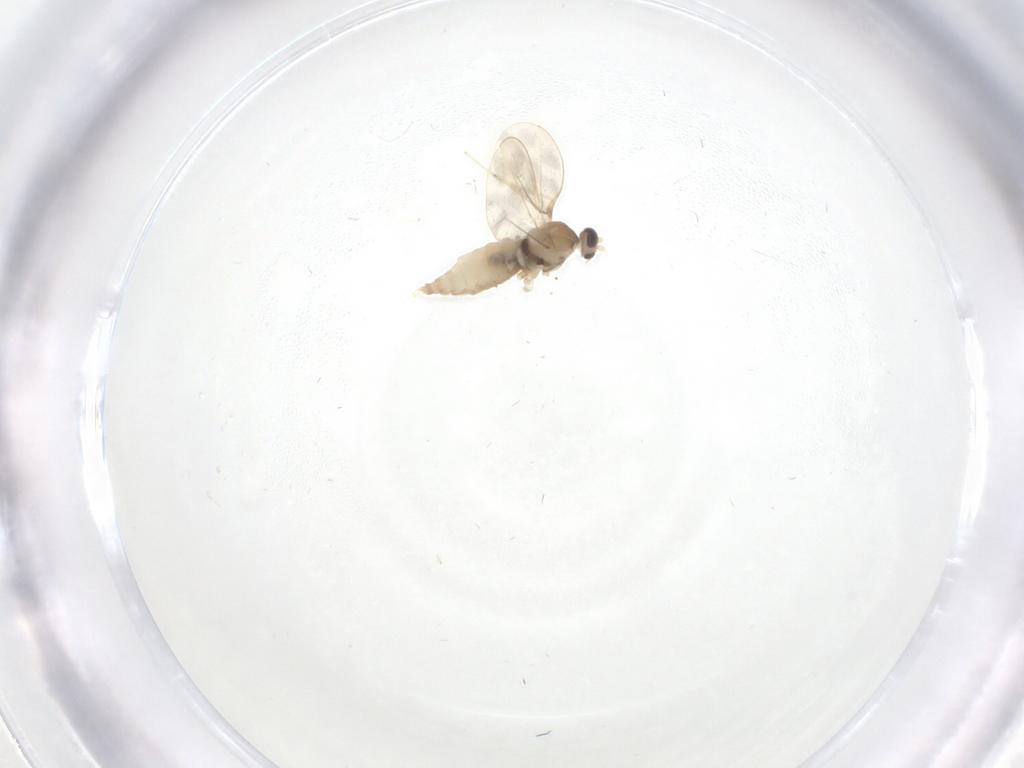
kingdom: Animalia
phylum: Arthropoda
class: Insecta
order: Diptera
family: Cecidomyiidae
